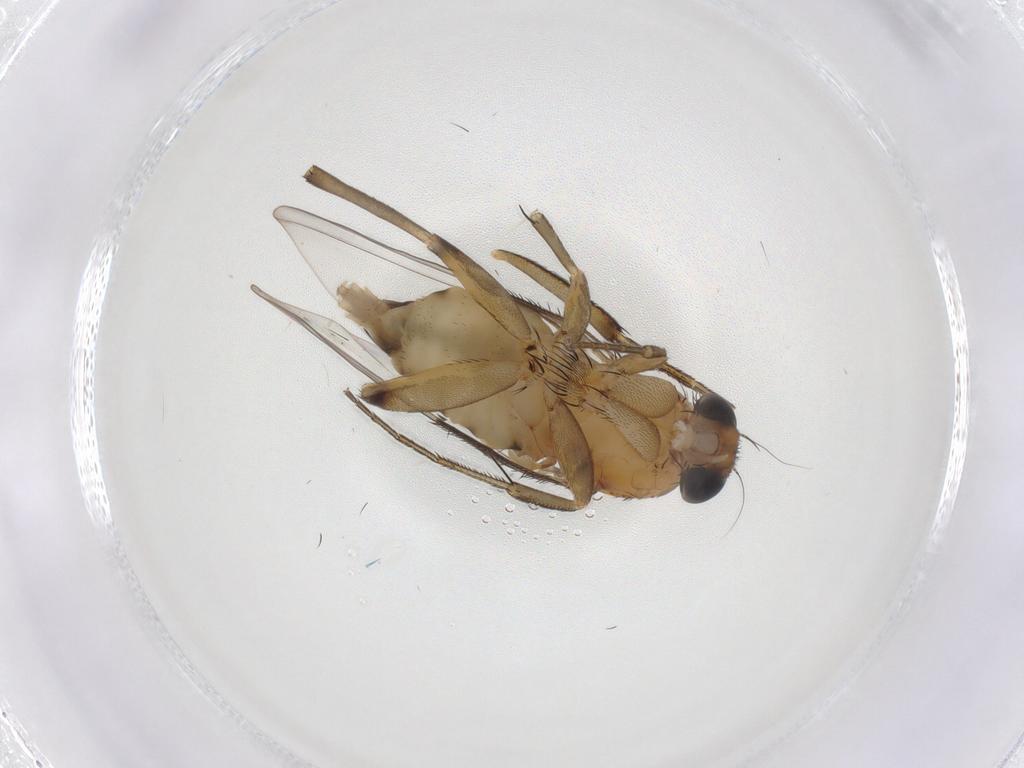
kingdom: Animalia
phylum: Arthropoda
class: Insecta
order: Diptera
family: Phoridae
